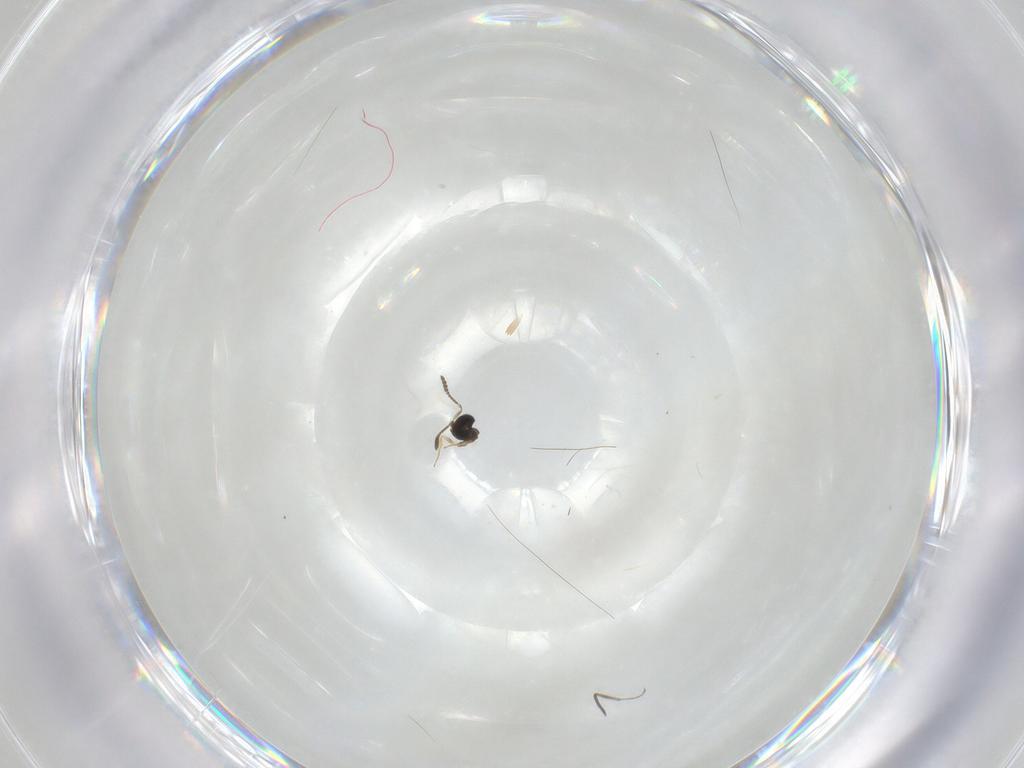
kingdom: Animalia
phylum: Arthropoda
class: Insecta
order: Hymenoptera
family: Scelionidae
